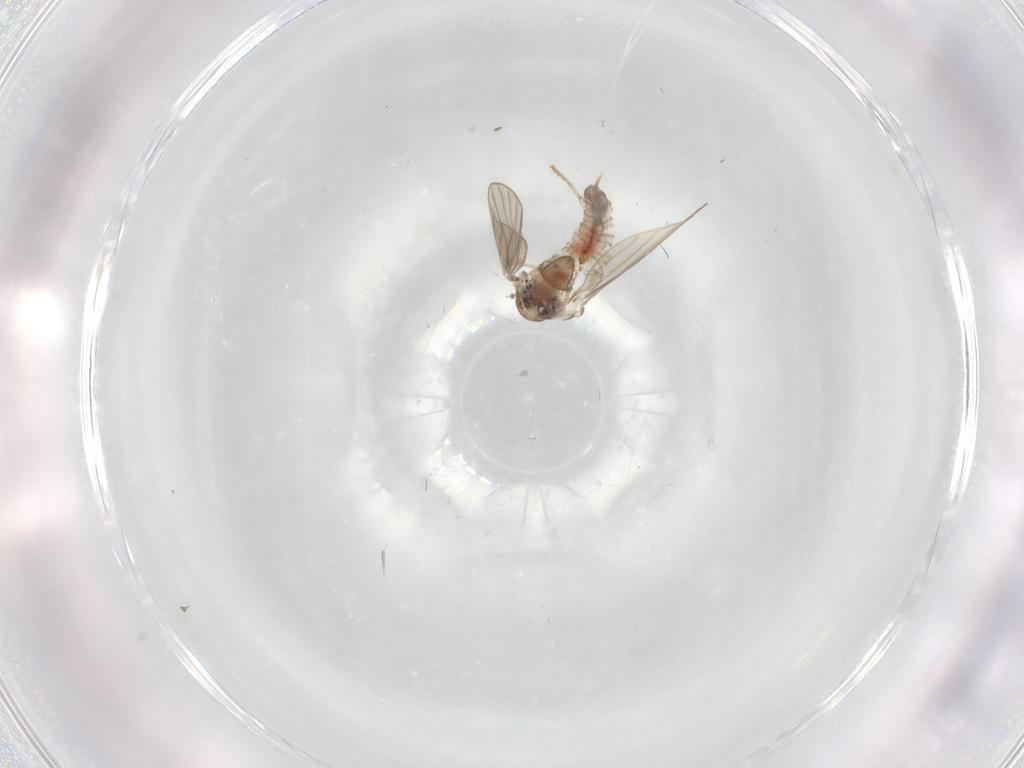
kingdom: Animalia
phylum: Arthropoda
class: Insecta
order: Diptera
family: Psychodidae
